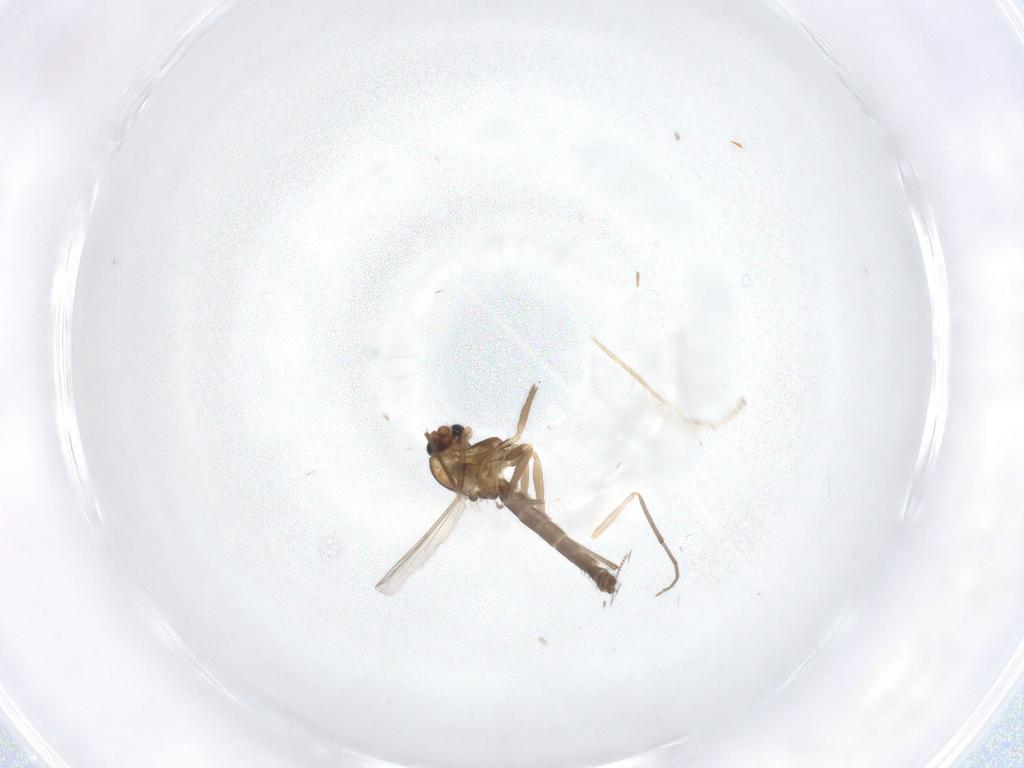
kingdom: Animalia
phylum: Arthropoda
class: Insecta
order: Diptera
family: Chironomidae
